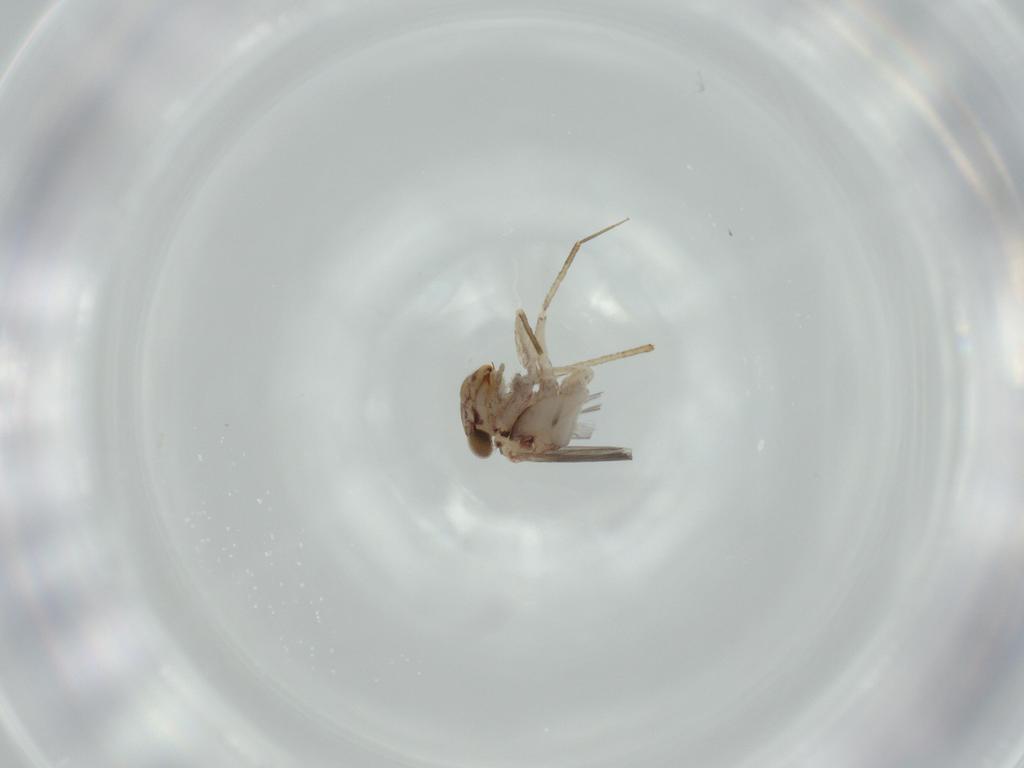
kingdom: Animalia
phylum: Arthropoda
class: Insecta
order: Psocodea
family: Lepidopsocidae
